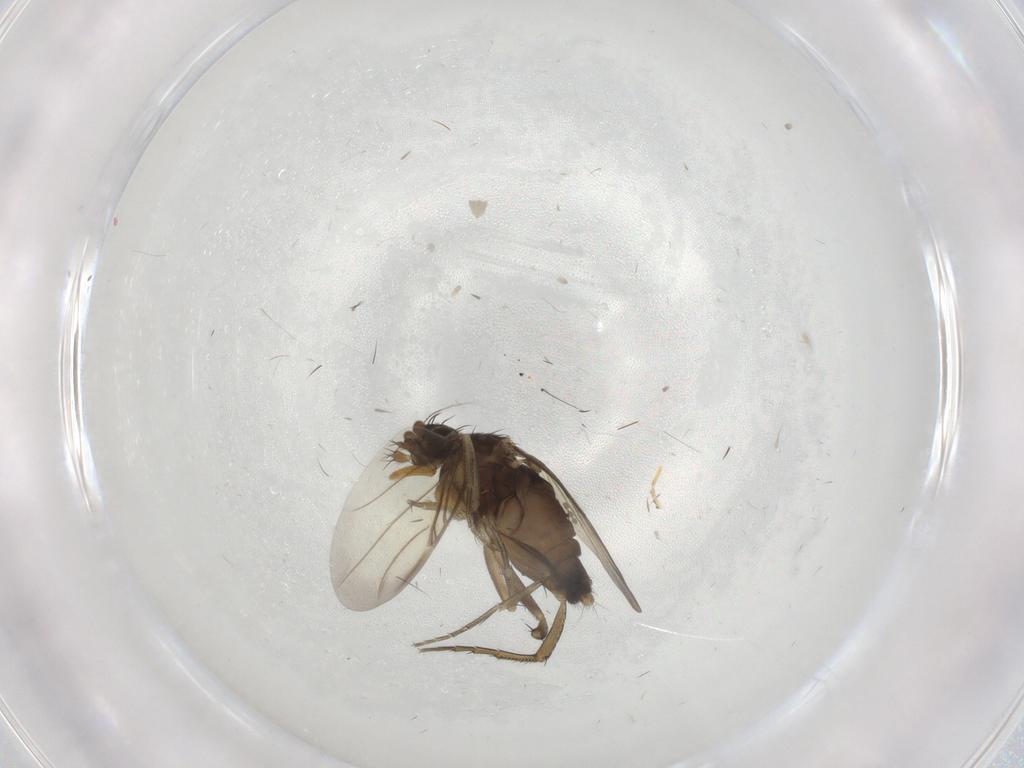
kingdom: Animalia
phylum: Arthropoda
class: Insecta
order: Diptera
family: Phoridae
